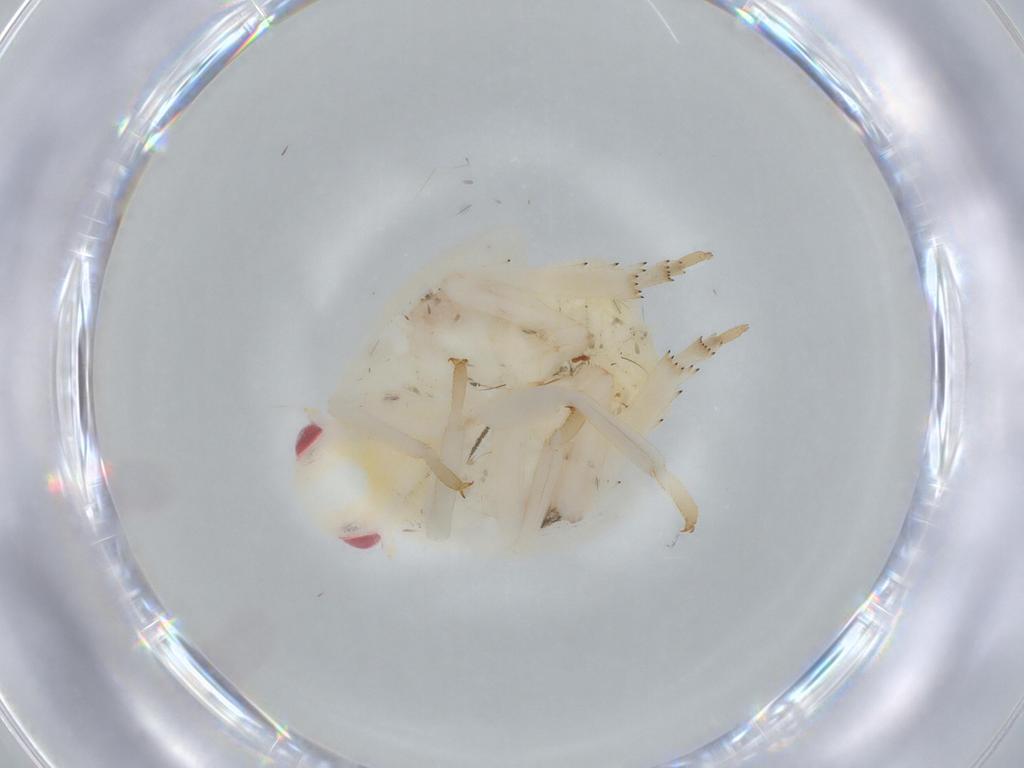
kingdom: Animalia
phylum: Arthropoda
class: Insecta
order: Hemiptera
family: Flatidae
